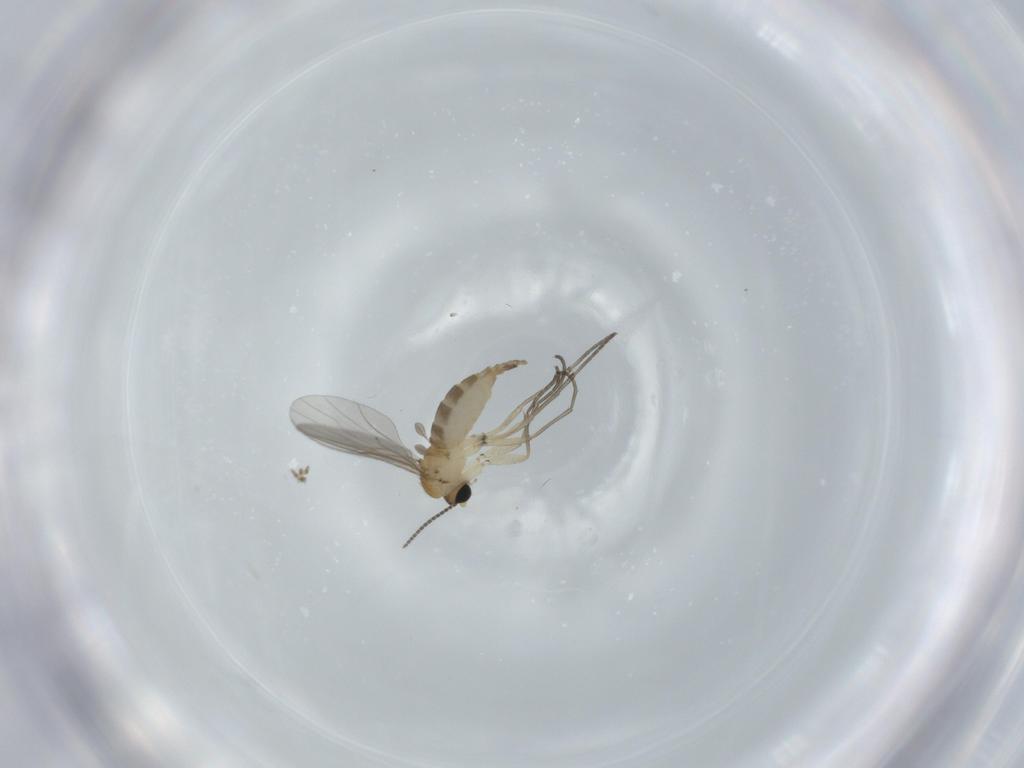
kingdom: Animalia
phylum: Arthropoda
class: Insecta
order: Diptera
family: Sciaridae
